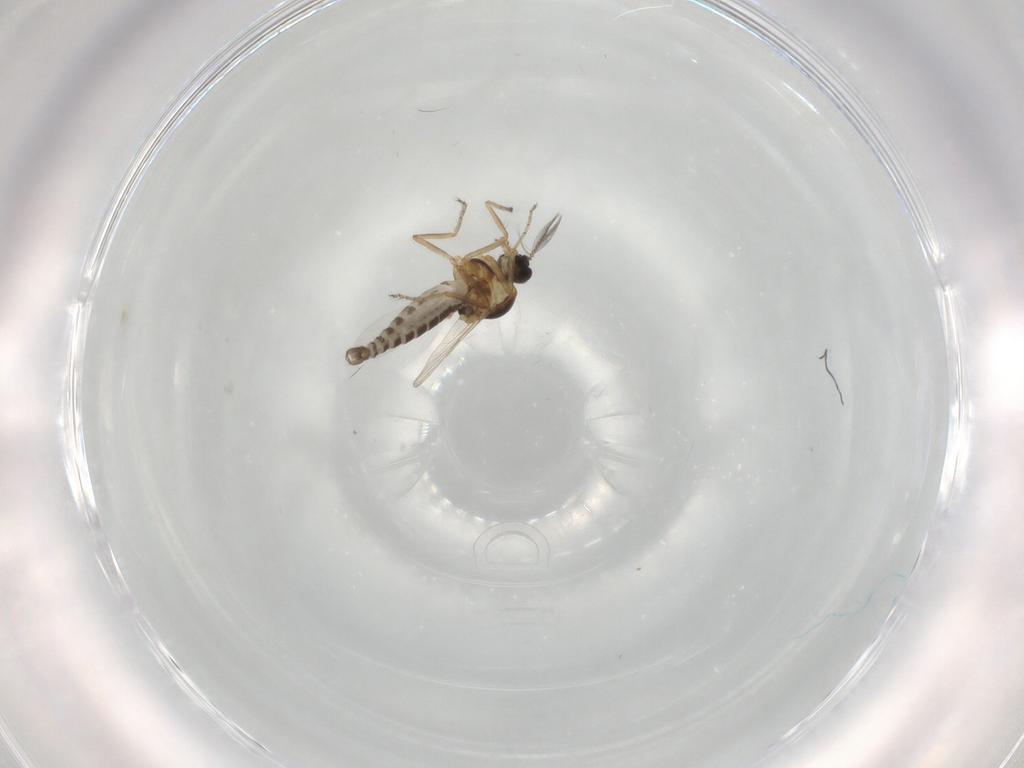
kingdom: Animalia
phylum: Arthropoda
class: Insecta
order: Diptera
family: Ceratopogonidae
